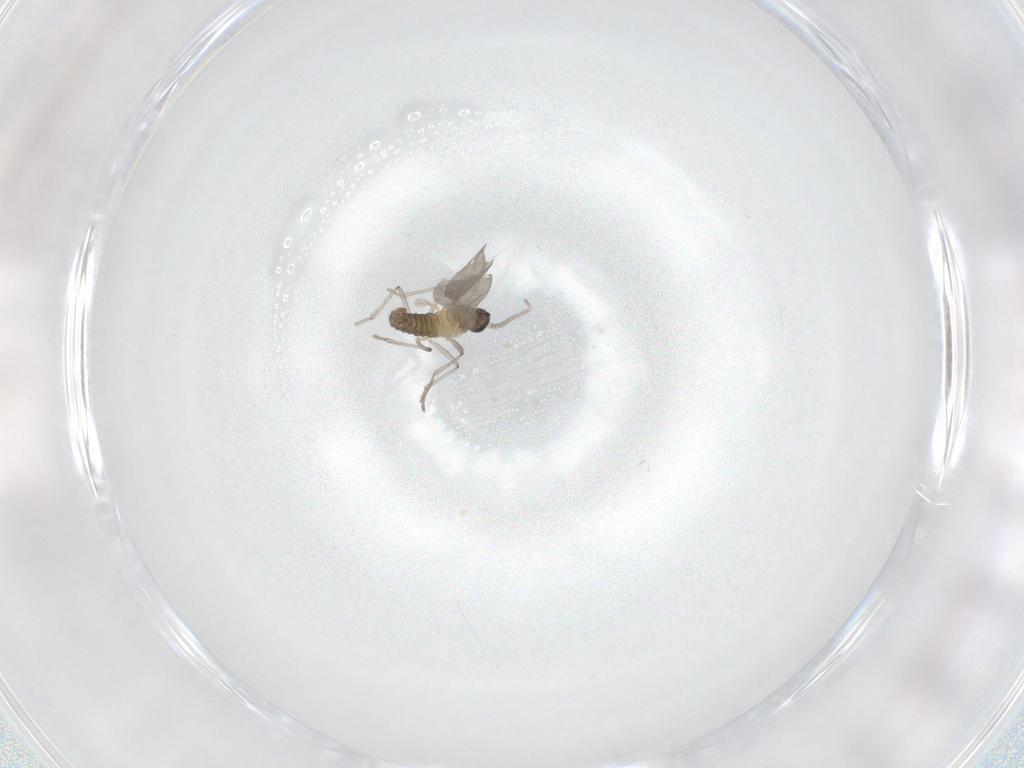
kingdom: Animalia
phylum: Arthropoda
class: Insecta
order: Diptera
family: Cecidomyiidae
